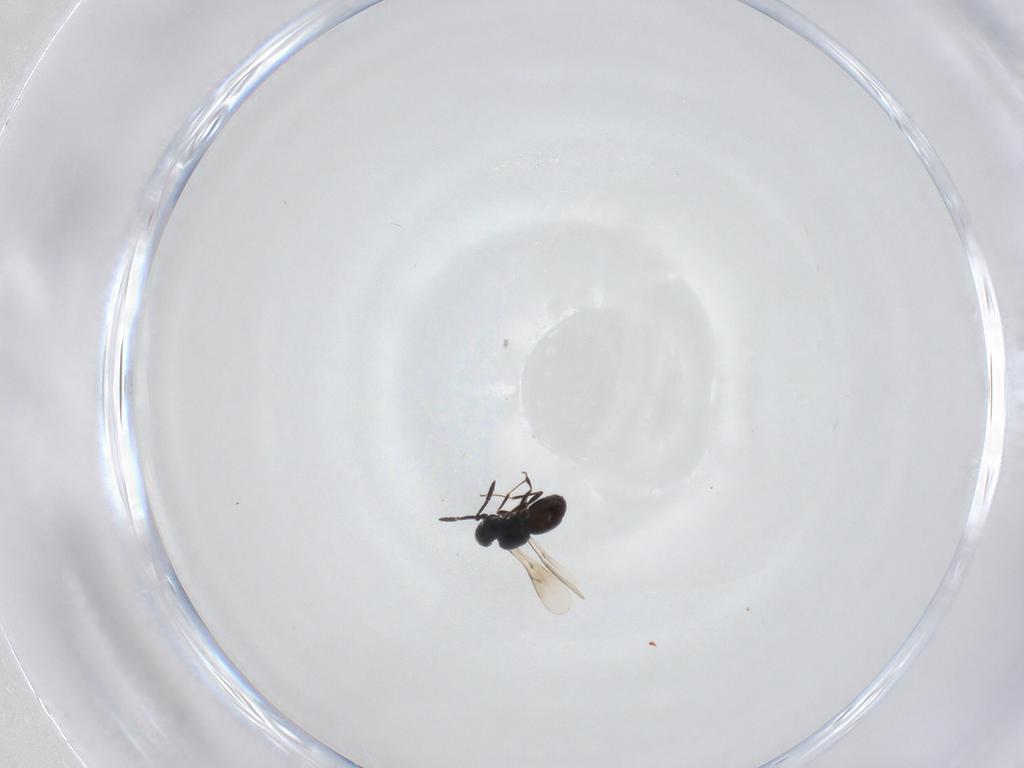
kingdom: Animalia
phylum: Arthropoda
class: Insecta
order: Hymenoptera
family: Scelionidae
